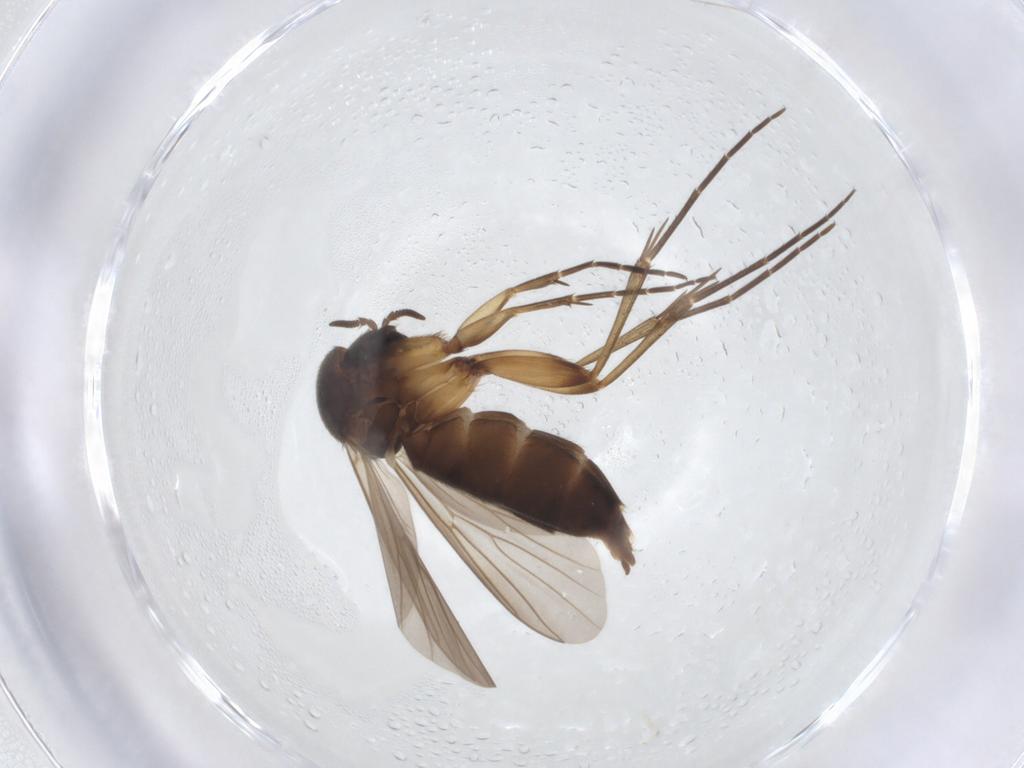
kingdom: Animalia
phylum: Arthropoda
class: Insecta
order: Diptera
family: Mycetophilidae
